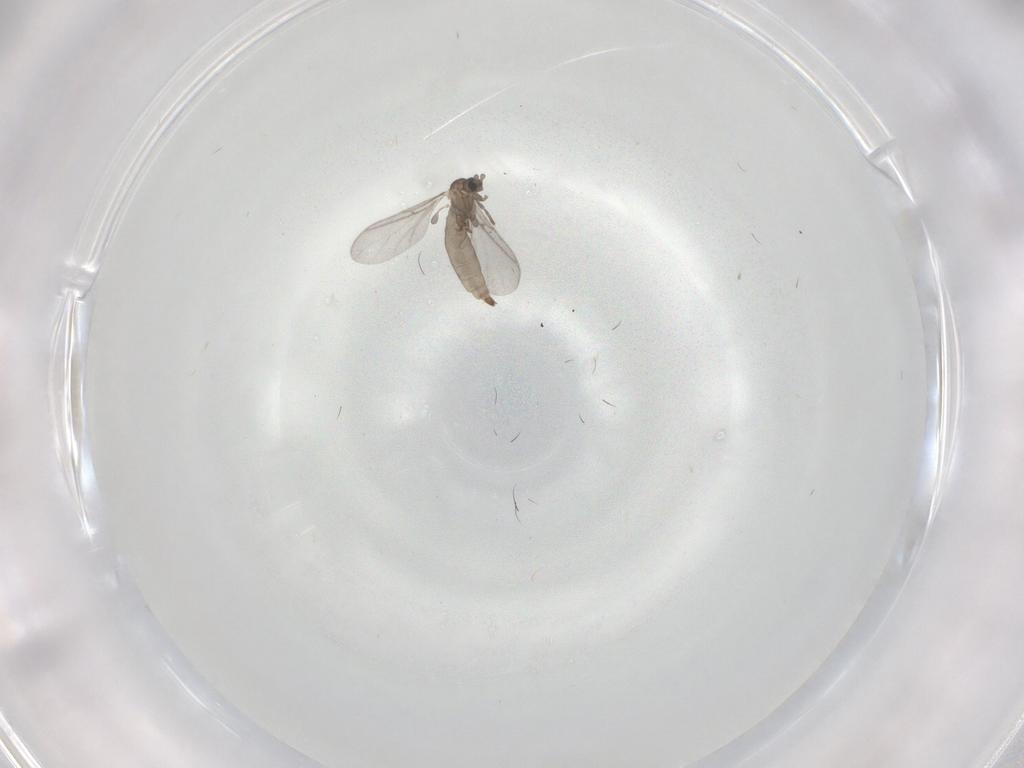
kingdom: Animalia
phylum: Arthropoda
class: Insecta
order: Diptera
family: Sciaridae
